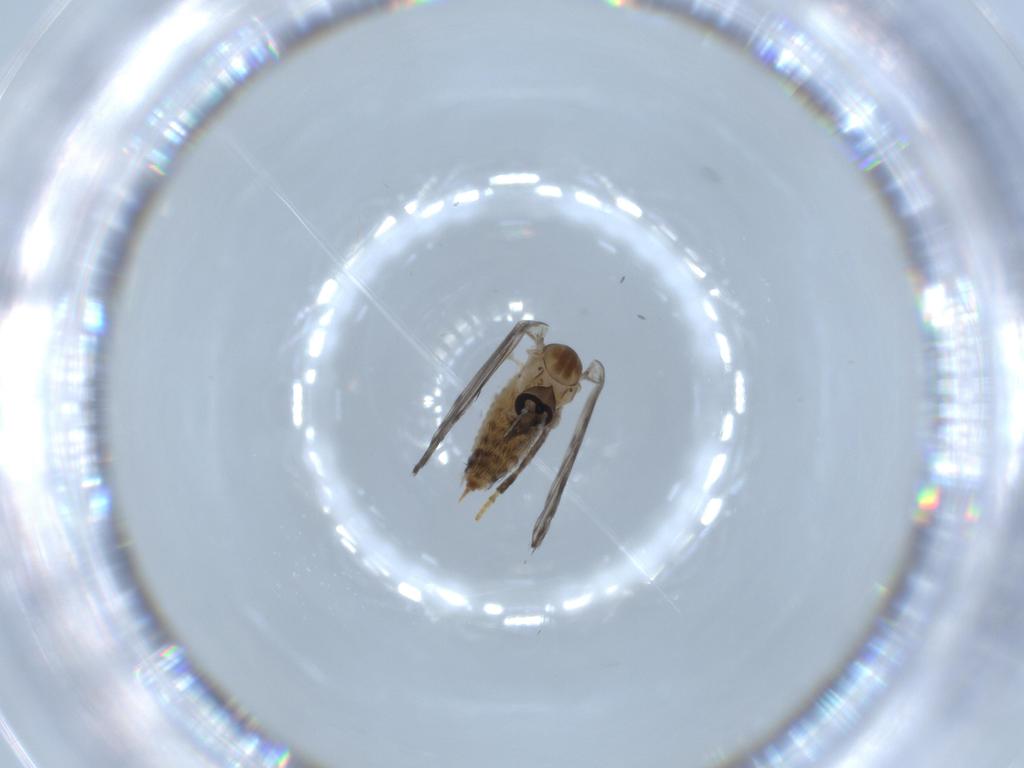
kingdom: Animalia
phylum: Arthropoda
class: Insecta
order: Diptera
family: Psychodidae
